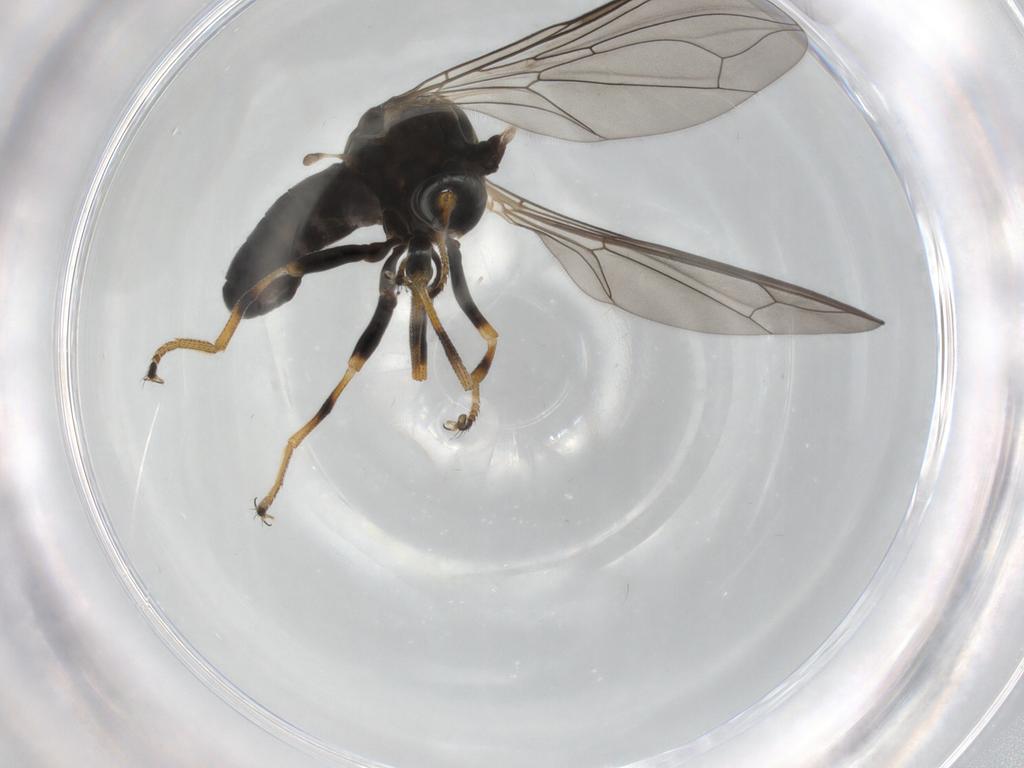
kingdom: Animalia
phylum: Arthropoda
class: Insecta
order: Diptera
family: Pipunculidae
